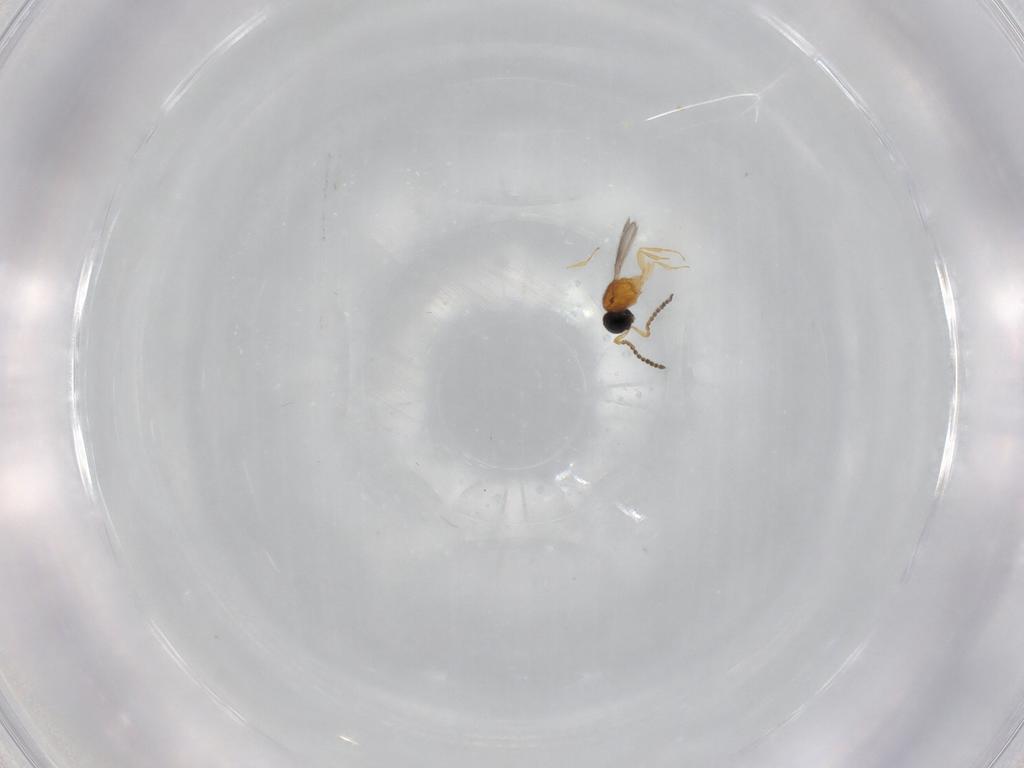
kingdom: Animalia
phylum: Arthropoda
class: Insecta
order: Hymenoptera
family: Scelionidae
